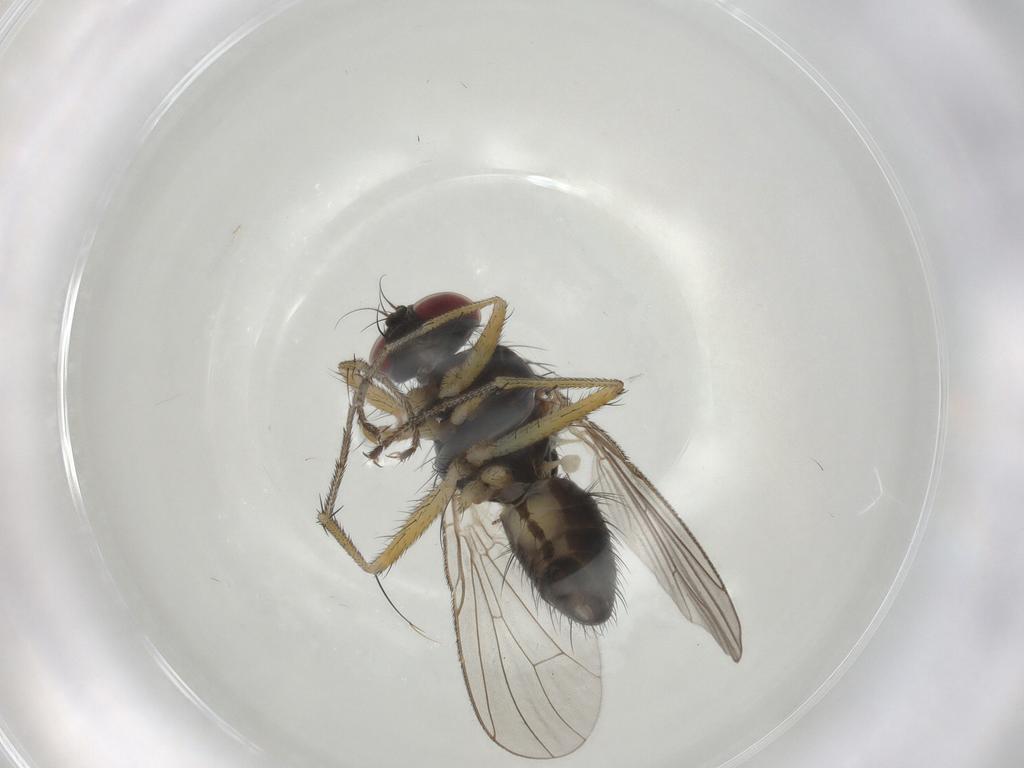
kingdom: Animalia
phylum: Arthropoda
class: Insecta
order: Diptera
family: Muscidae
